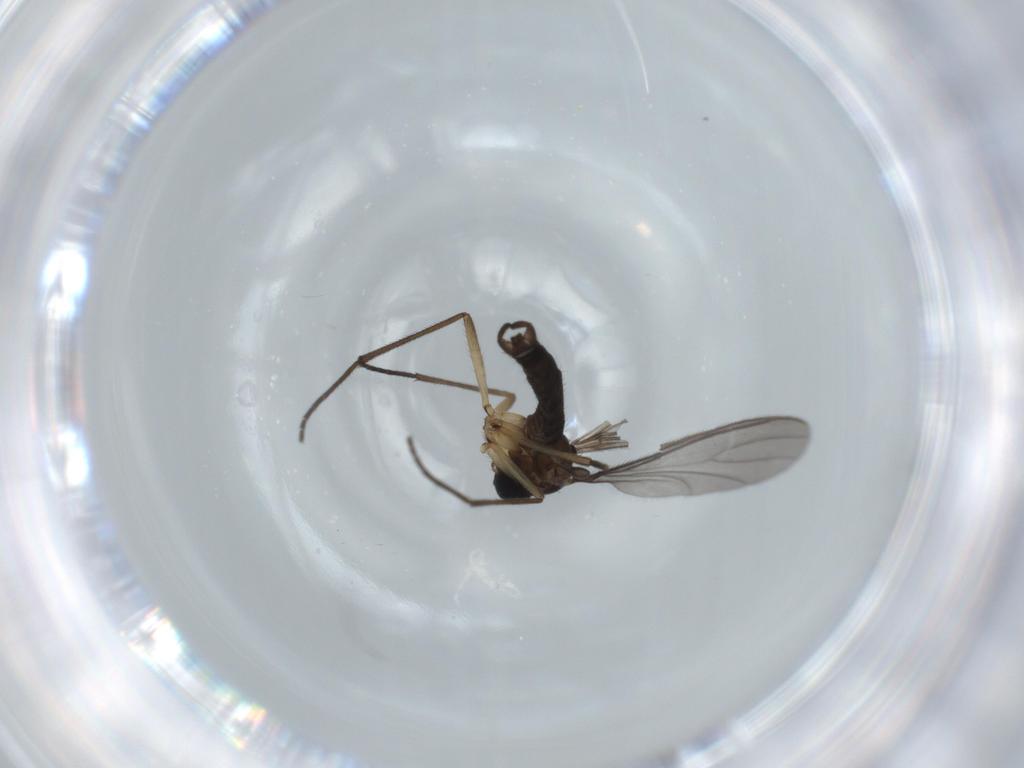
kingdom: Animalia
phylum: Arthropoda
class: Insecta
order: Diptera
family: Sciaridae
